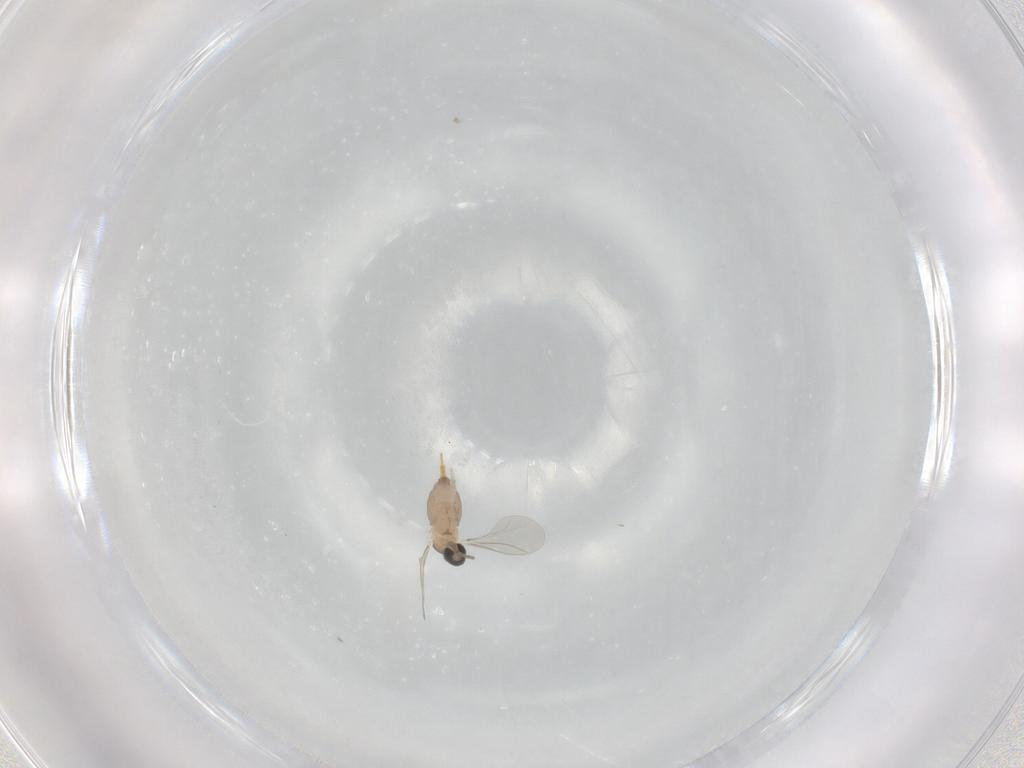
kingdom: Animalia
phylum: Arthropoda
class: Insecta
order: Diptera
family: Cecidomyiidae
